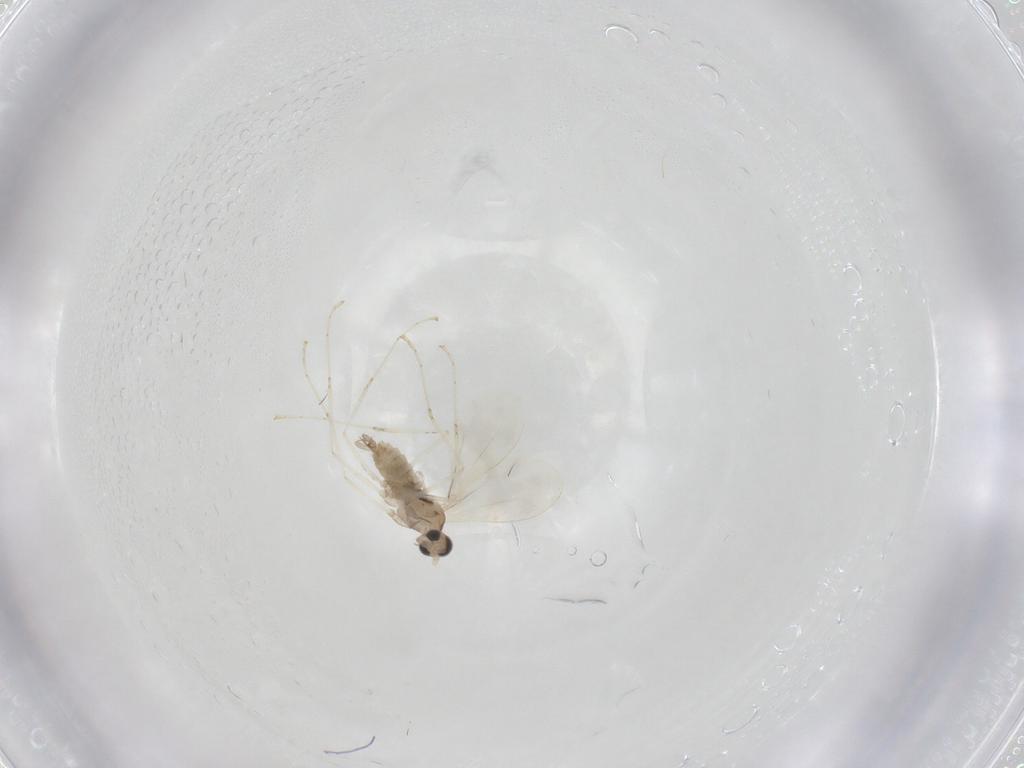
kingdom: Animalia
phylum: Arthropoda
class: Insecta
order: Diptera
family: Cecidomyiidae
